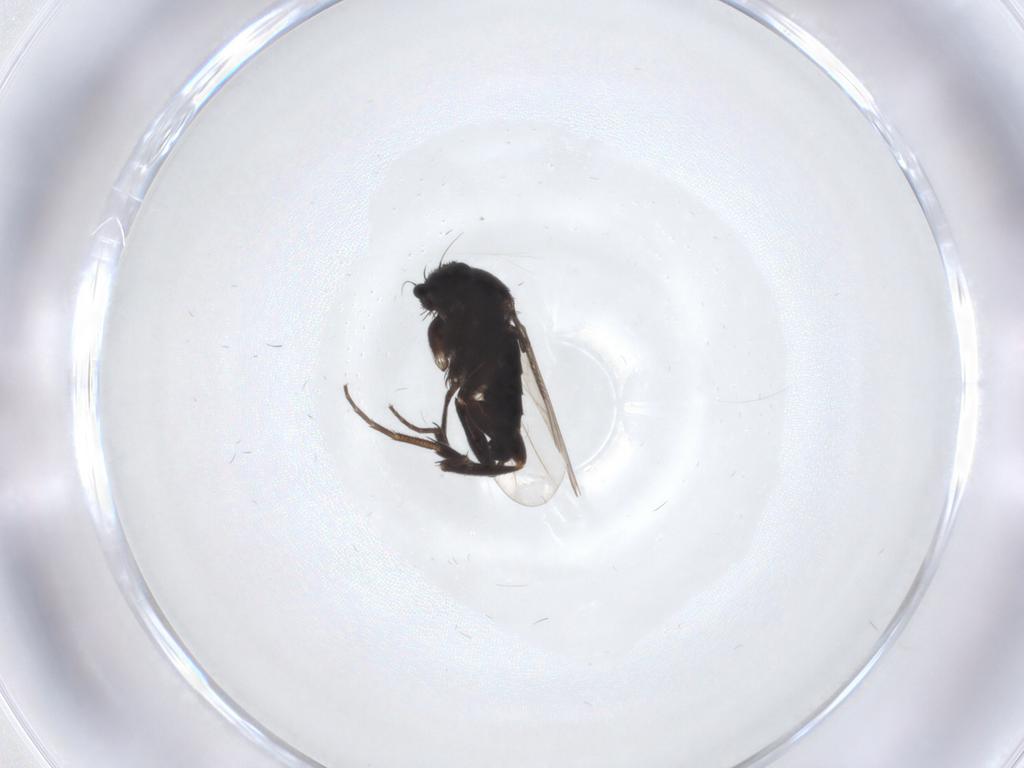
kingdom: Animalia
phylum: Arthropoda
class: Insecta
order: Diptera
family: Phoridae
